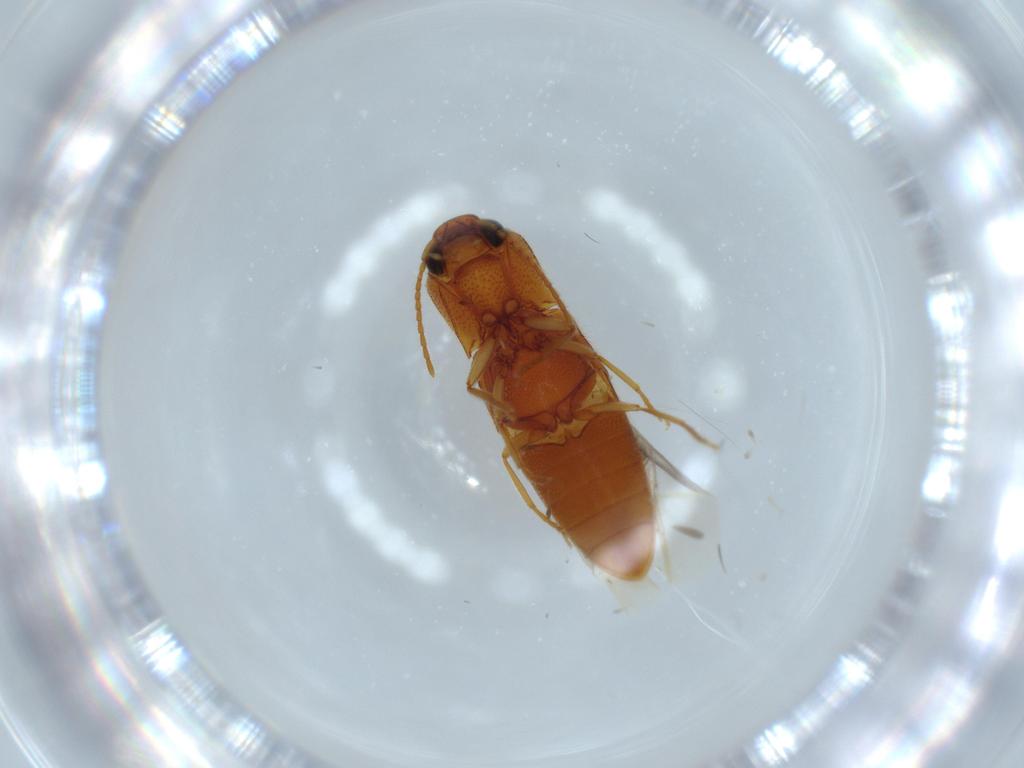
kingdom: Animalia
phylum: Arthropoda
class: Insecta
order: Coleoptera
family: Elateridae
